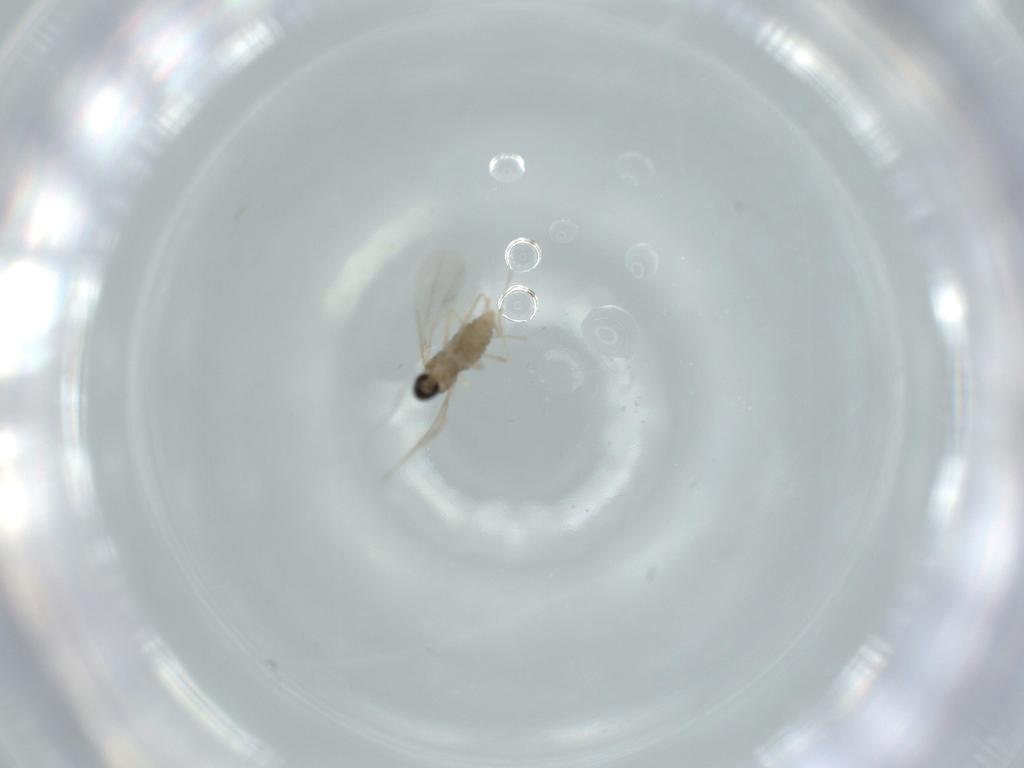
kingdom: Animalia
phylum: Arthropoda
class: Insecta
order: Diptera
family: Cecidomyiidae
